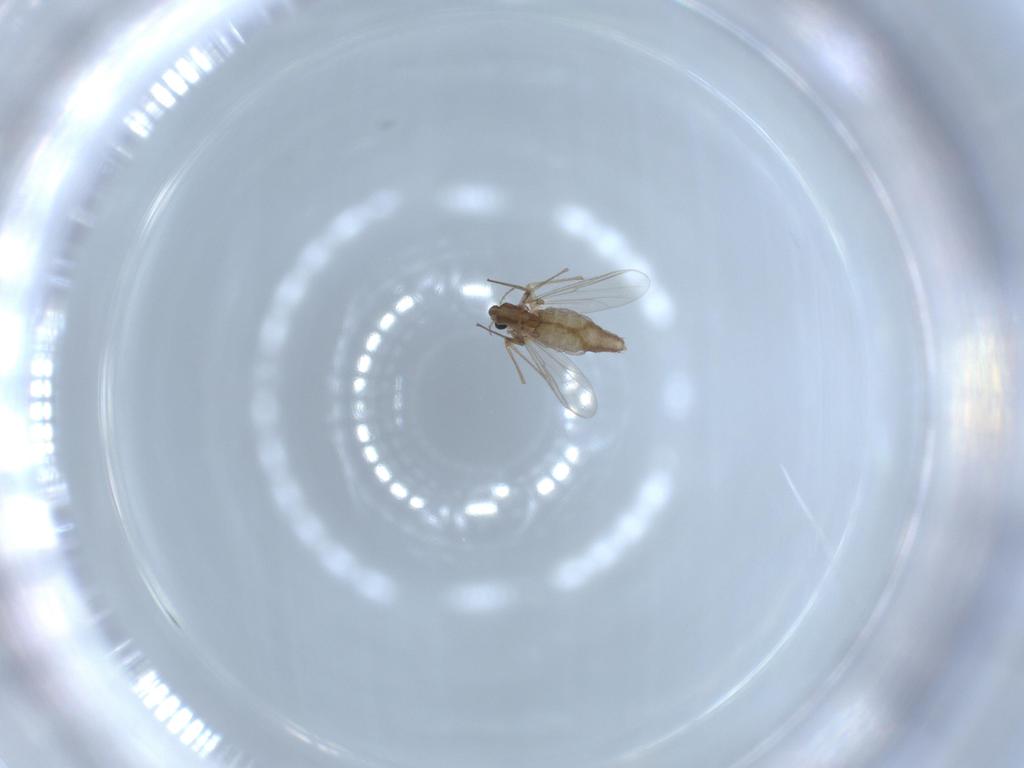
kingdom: Animalia
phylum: Arthropoda
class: Insecta
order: Diptera
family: Chironomidae
